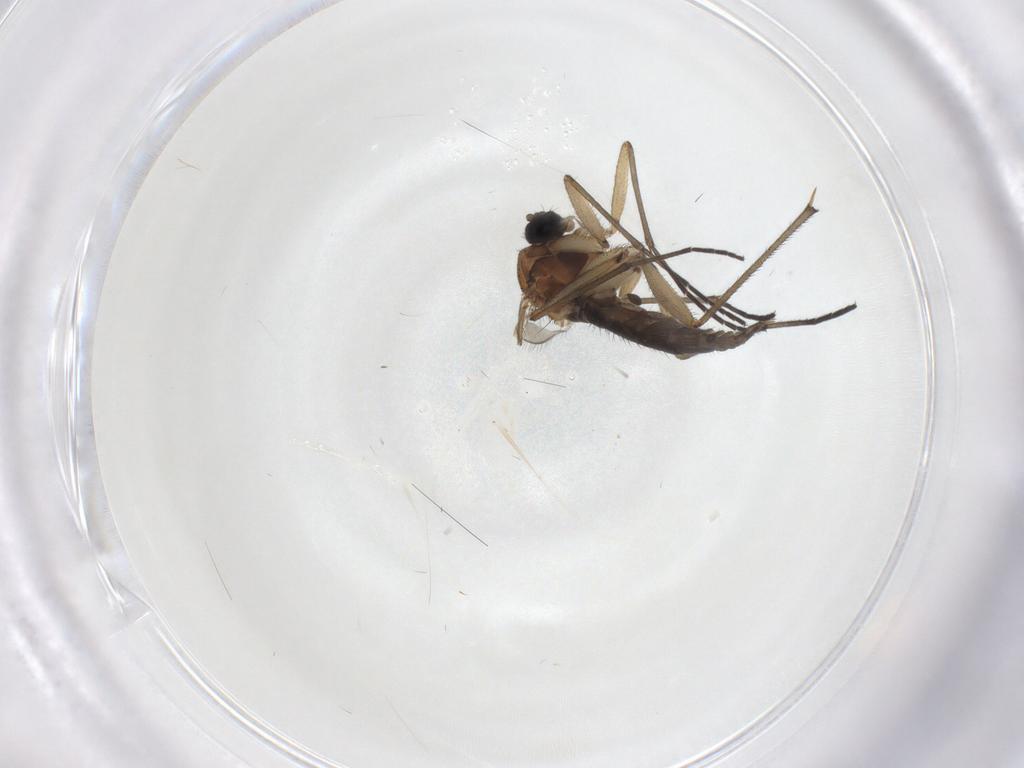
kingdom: Animalia
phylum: Arthropoda
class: Insecta
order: Diptera
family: Sciaridae
